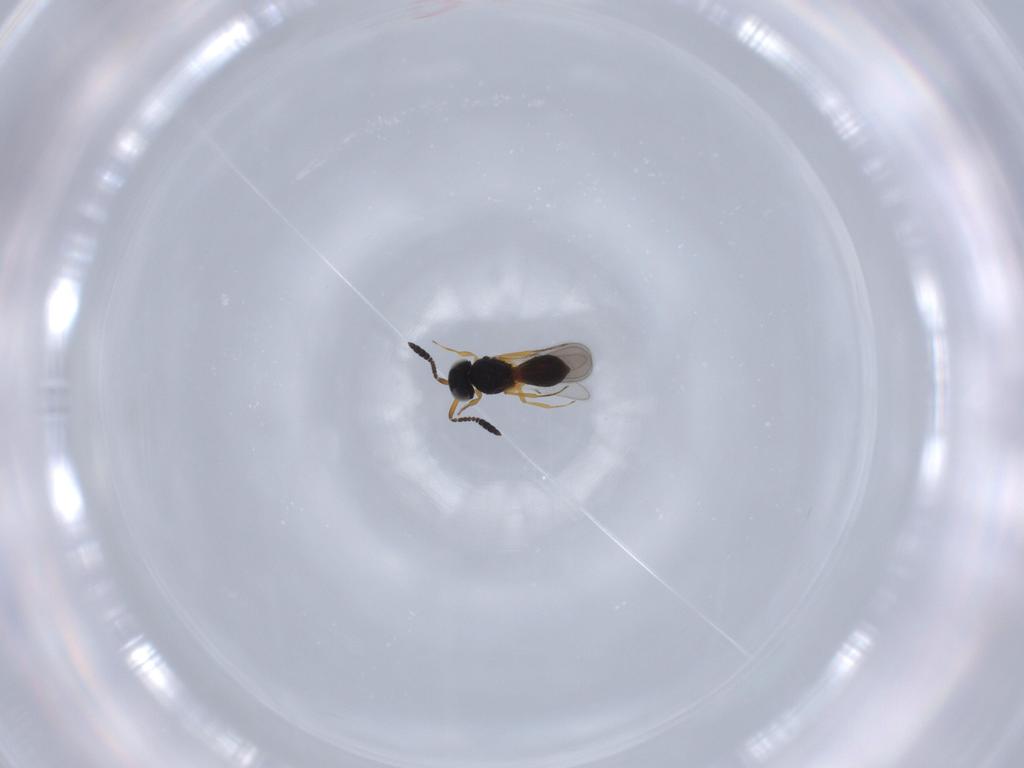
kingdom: Animalia
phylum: Arthropoda
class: Insecta
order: Hymenoptera
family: Scelionidae
